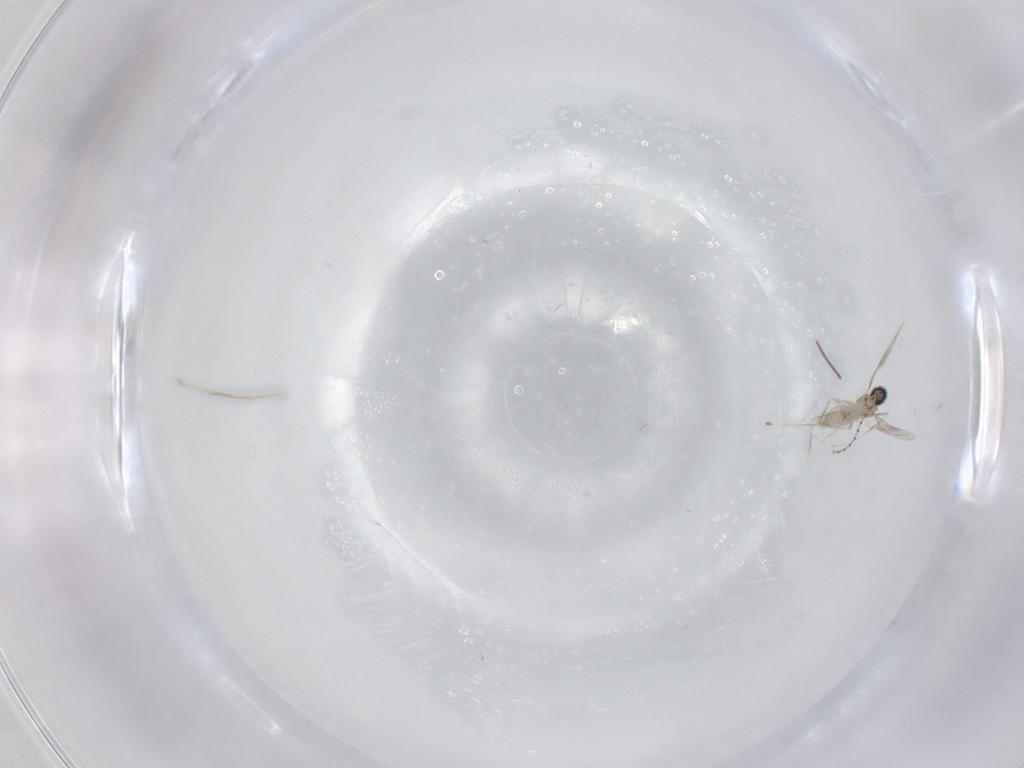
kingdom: Animalia
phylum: Arthropoda
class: Insecta
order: Diptera
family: Cecidomyiidae
